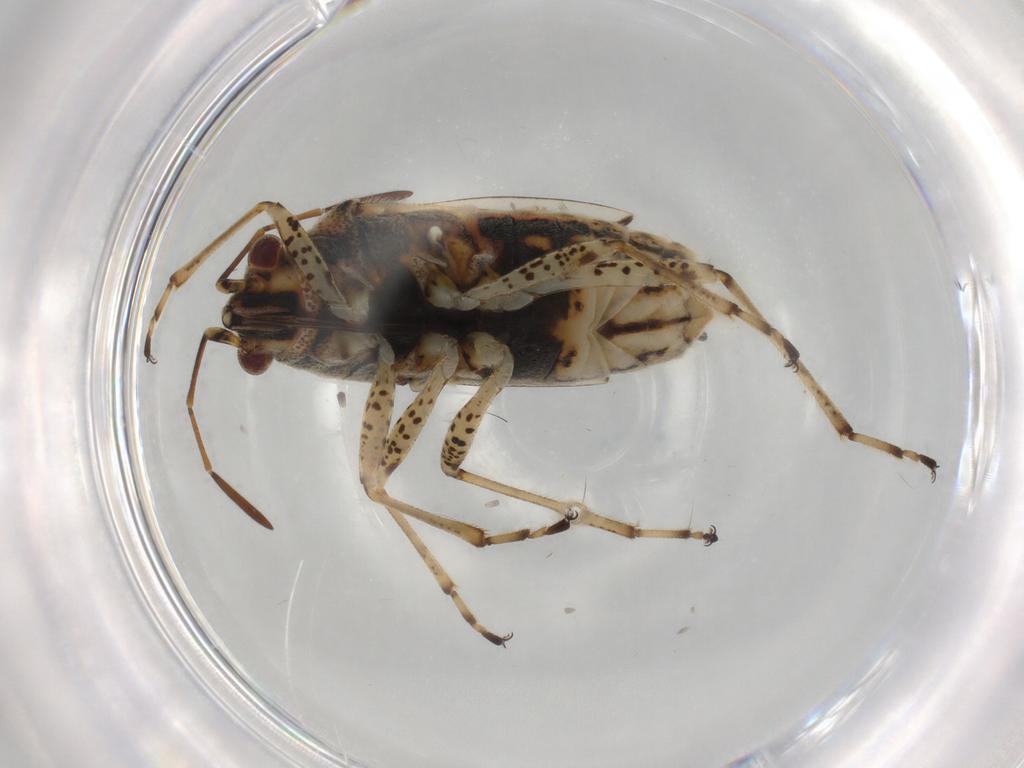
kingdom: Animalia
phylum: Arthropoda
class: Insecta
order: Hemiptera
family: Lygaeidae
